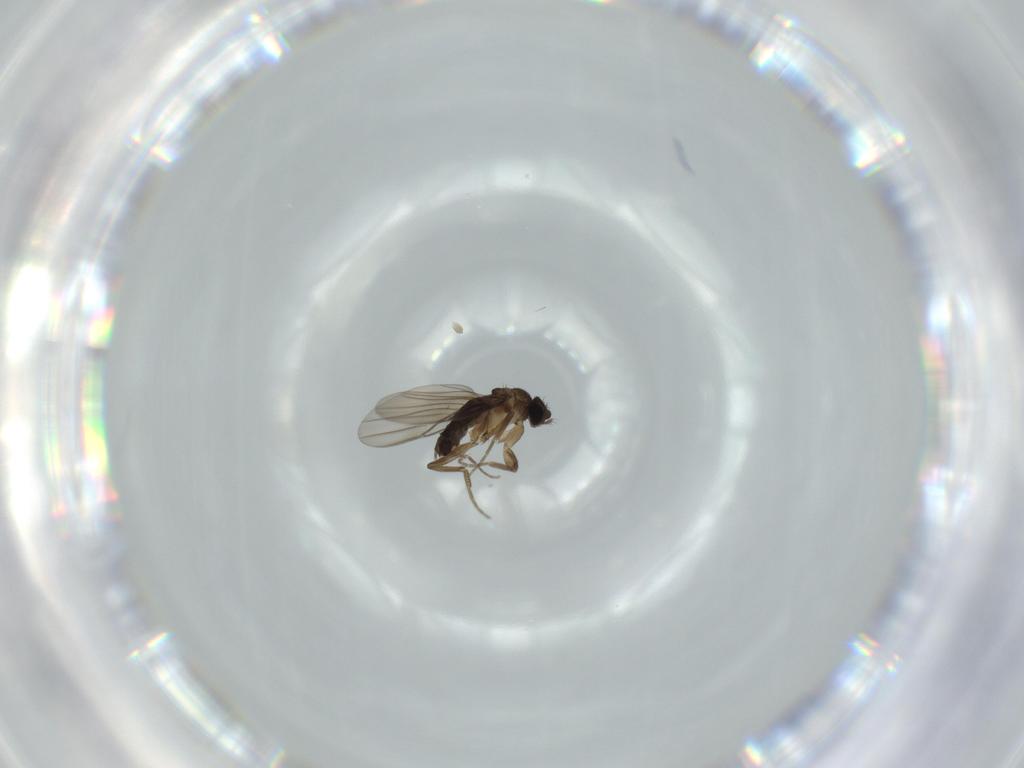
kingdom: Animalia
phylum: Arthropoda
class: Insecta
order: Diptera
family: Phoridae
